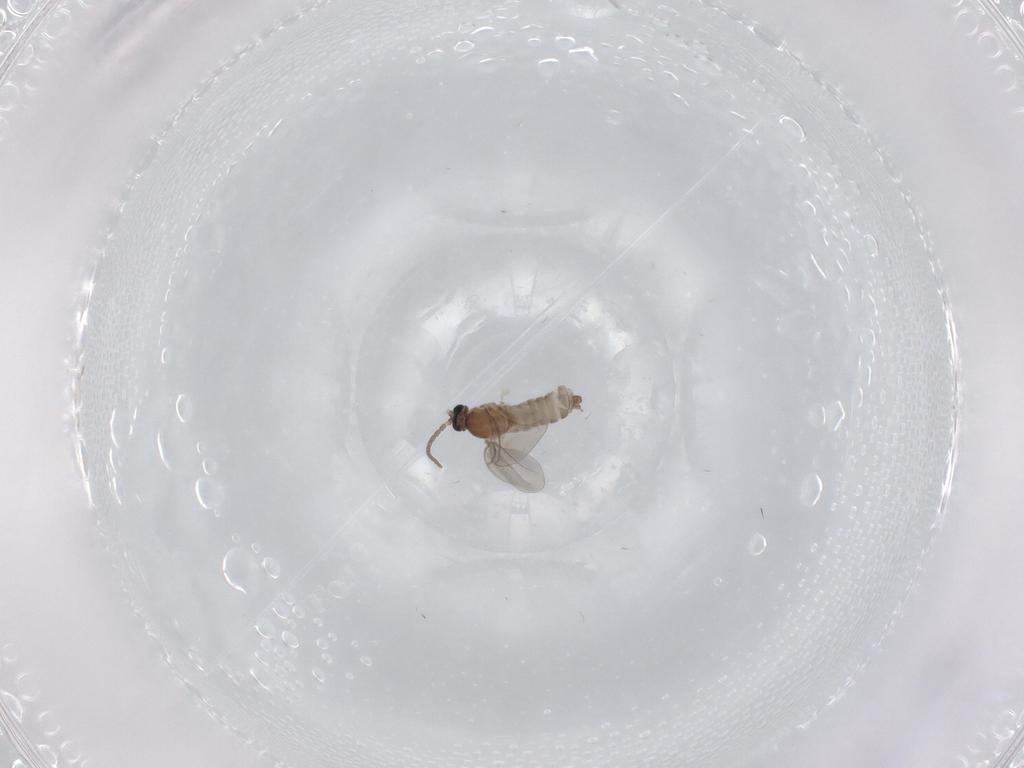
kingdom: Animalia
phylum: Arthropoda
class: Insecta
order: Diptera
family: Cecidomyiidae
